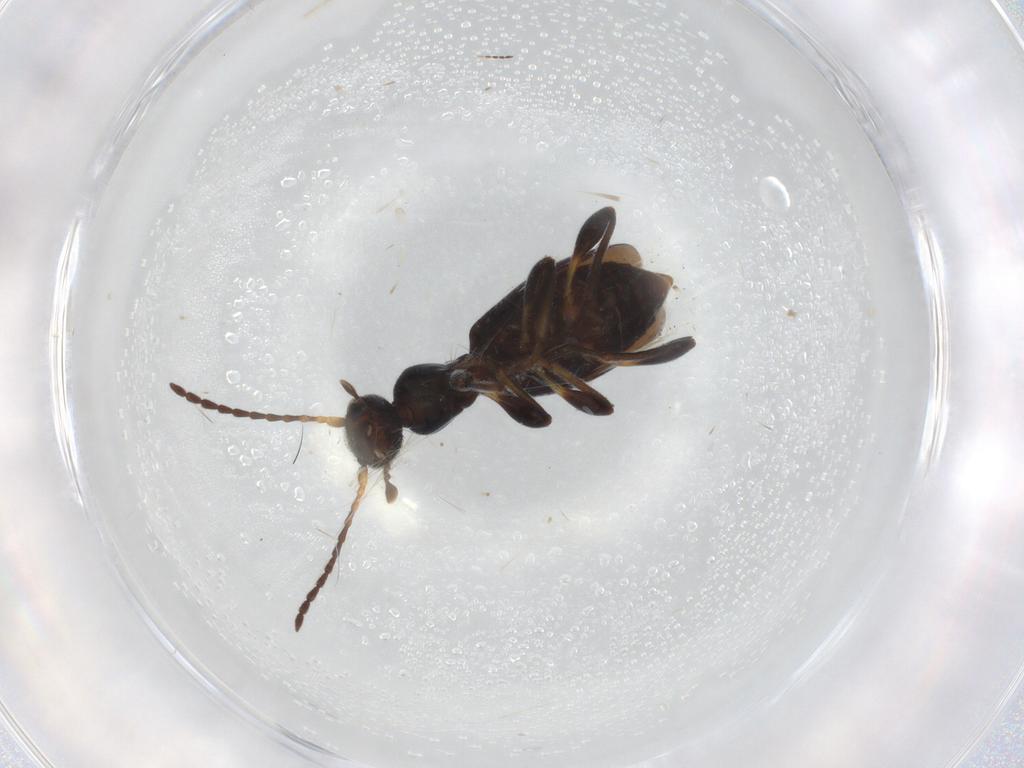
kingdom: Animalia
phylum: Arthropoda
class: Insecta
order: Coleoptera
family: Anthicidae
